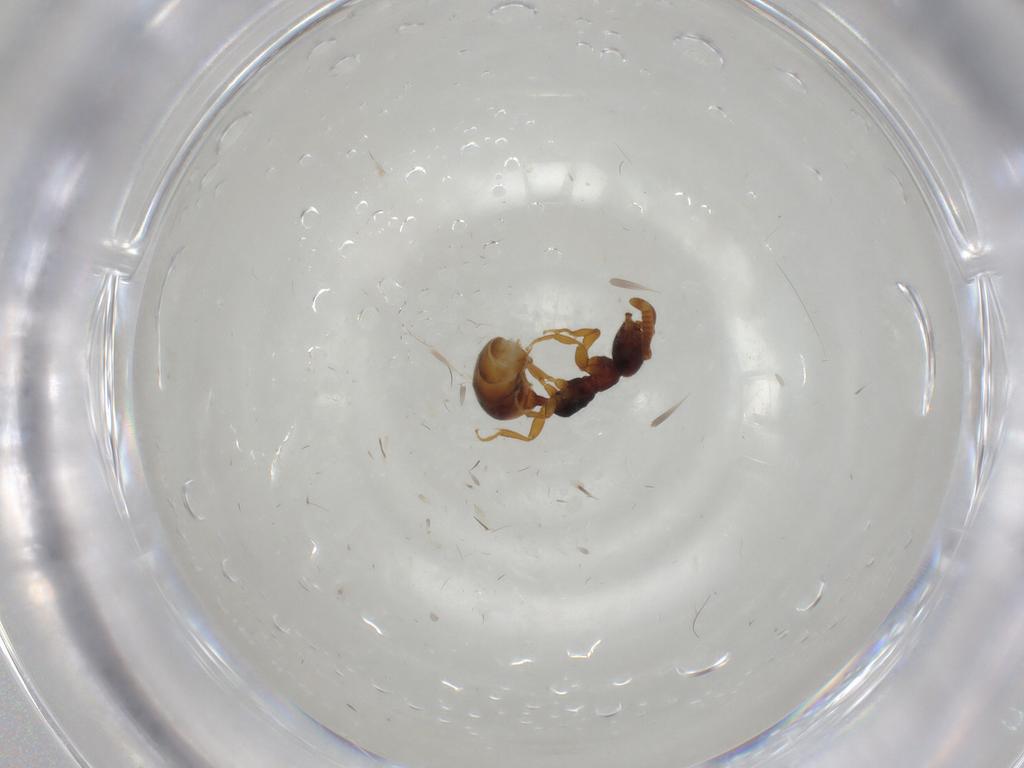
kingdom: Animalia
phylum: Arthropoda
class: Insecta
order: Hymenoptera
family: Bethylidae
